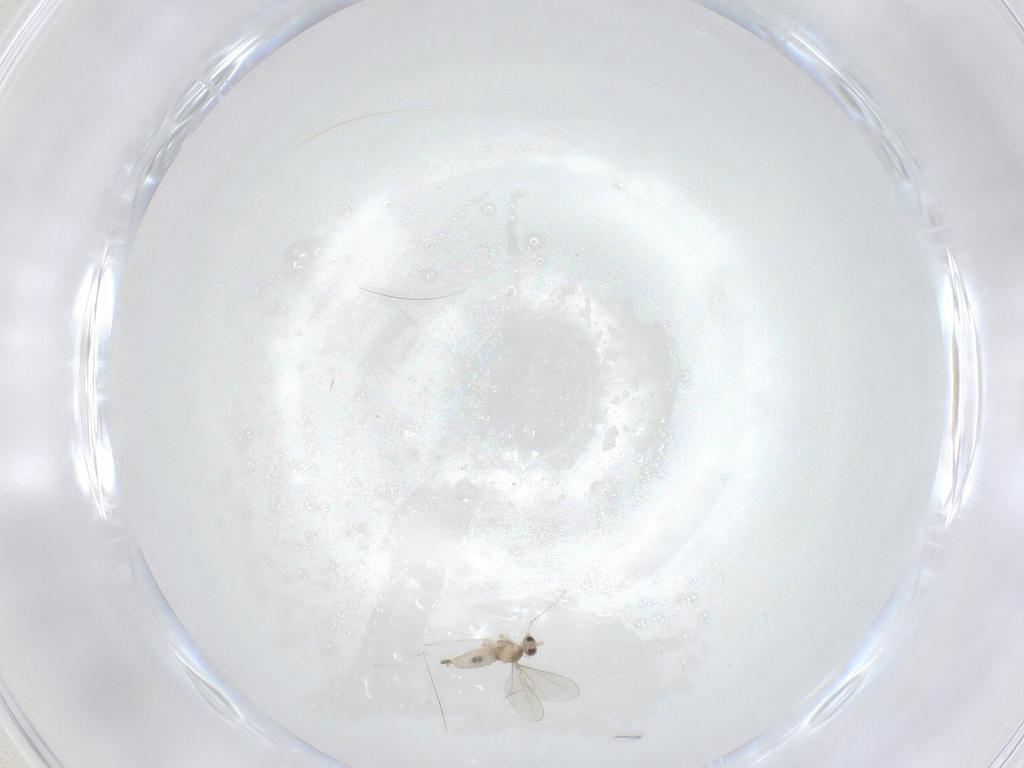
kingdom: Animalia
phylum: Arthropoda
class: Insecta
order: Diptera
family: Cecidomyiidae
